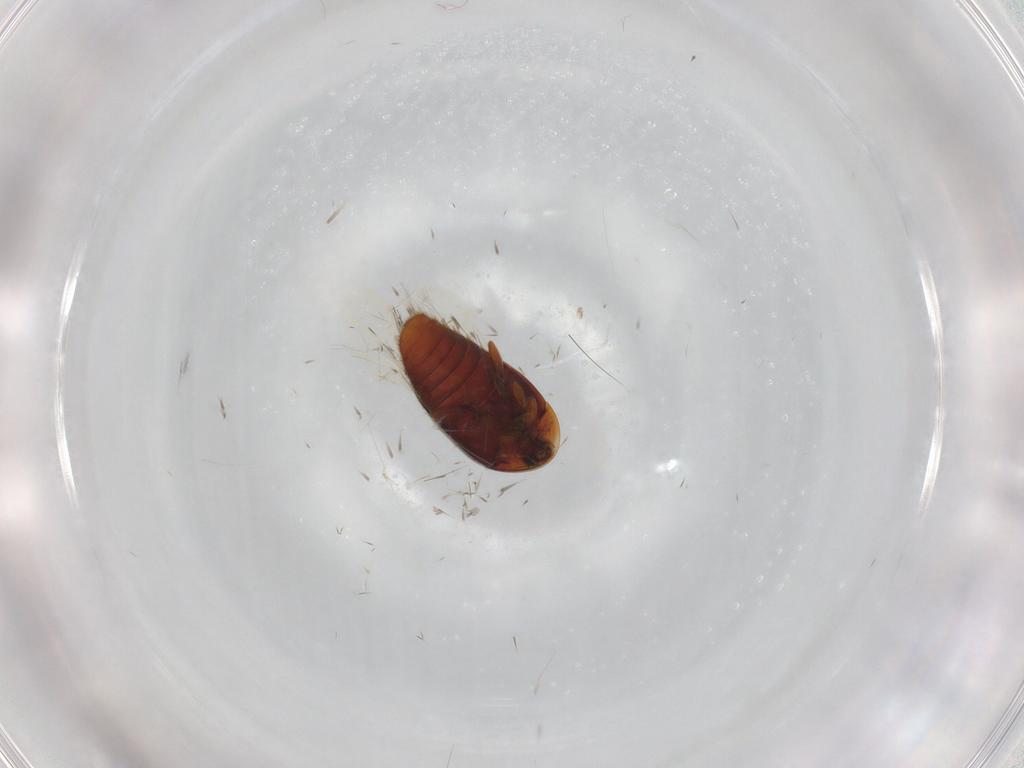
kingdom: Animalia
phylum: Arthropoda
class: Insecta
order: Coleoptera
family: Corylophidae
